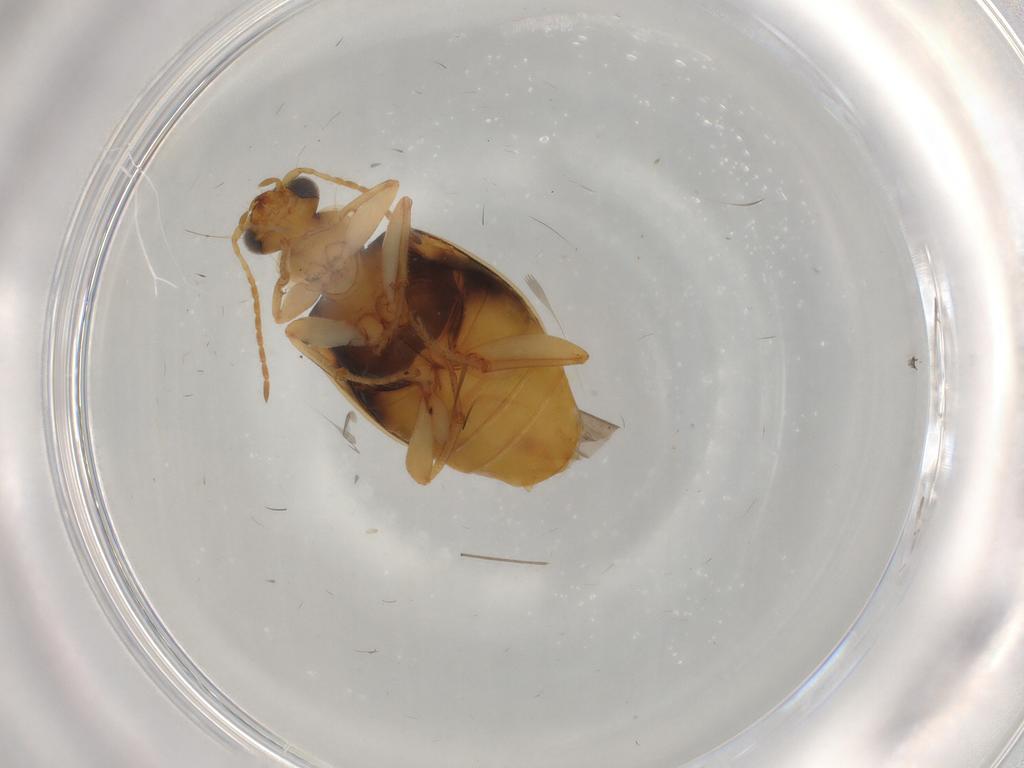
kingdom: Animalia
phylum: Arthropoda
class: Insecta
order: Coleoptera
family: Carabidae
